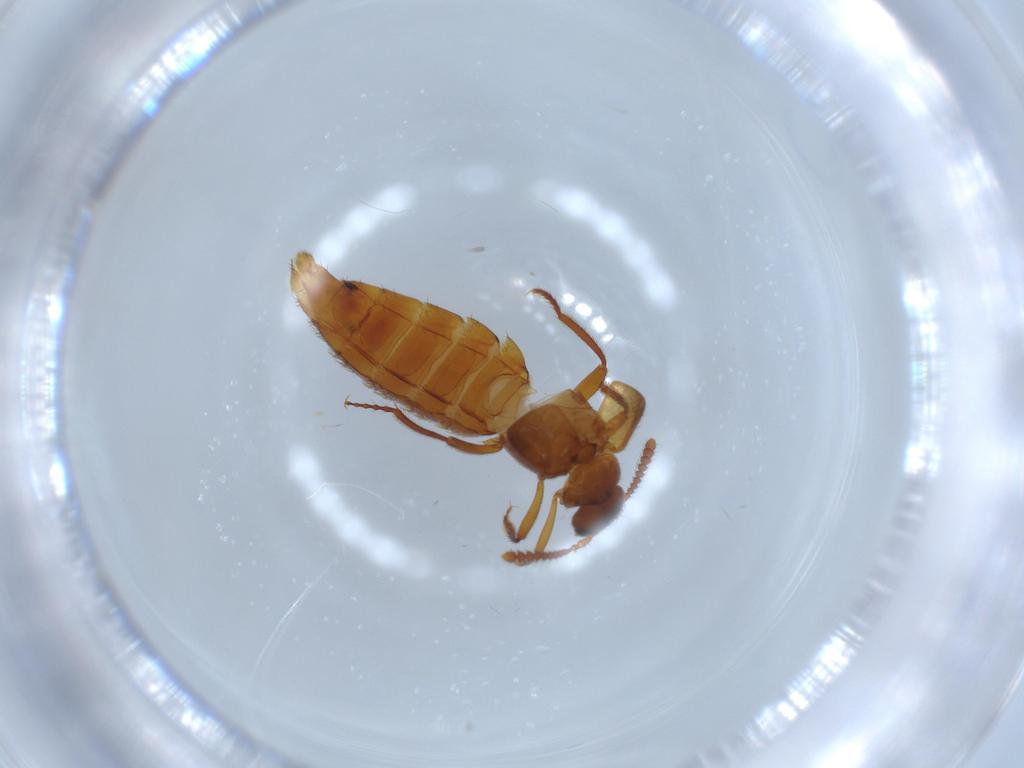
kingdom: Animalia
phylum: Arthropoda
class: Insecta
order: Coleoptera
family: Staphylinidae
